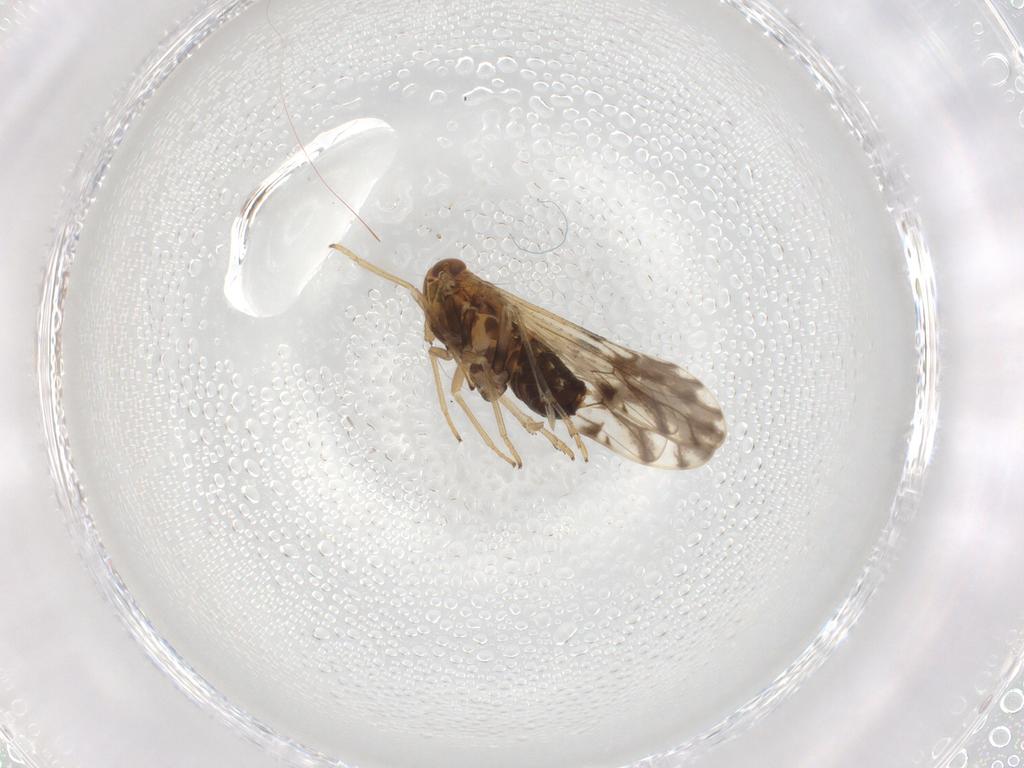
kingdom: Animalia
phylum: Arthropoda
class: Insecta
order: Hemiptera
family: Delphacidae
